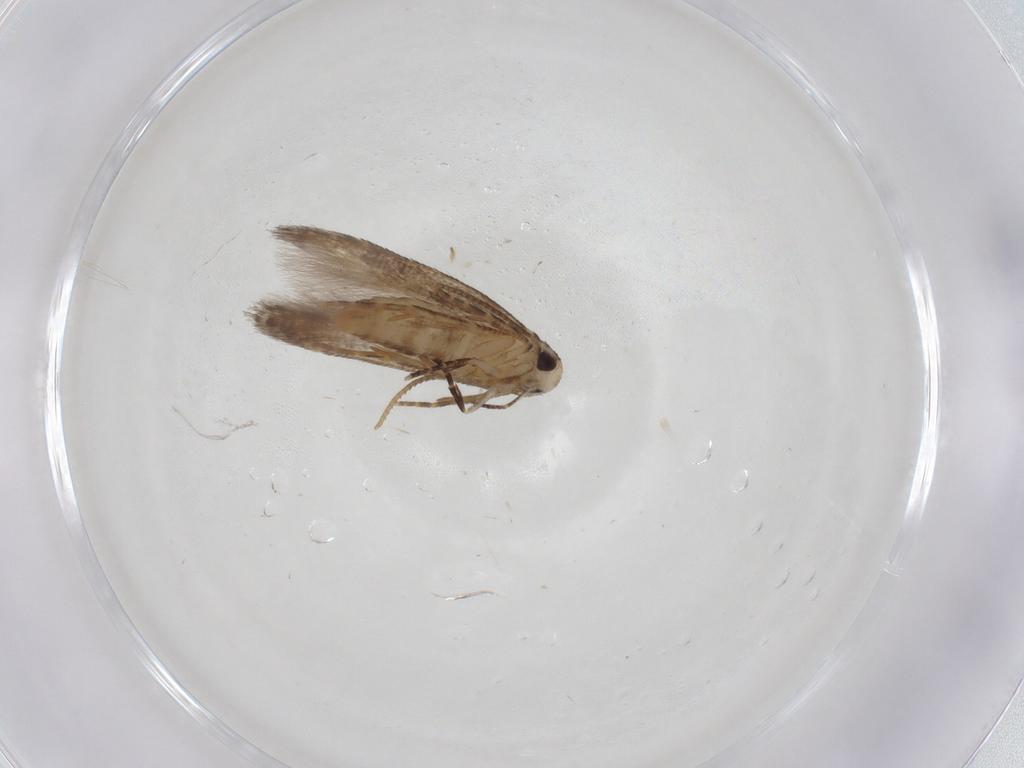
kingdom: Animalia
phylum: Arthropoda
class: Insecta
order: Lepidoptera
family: Cosmopterigidae
